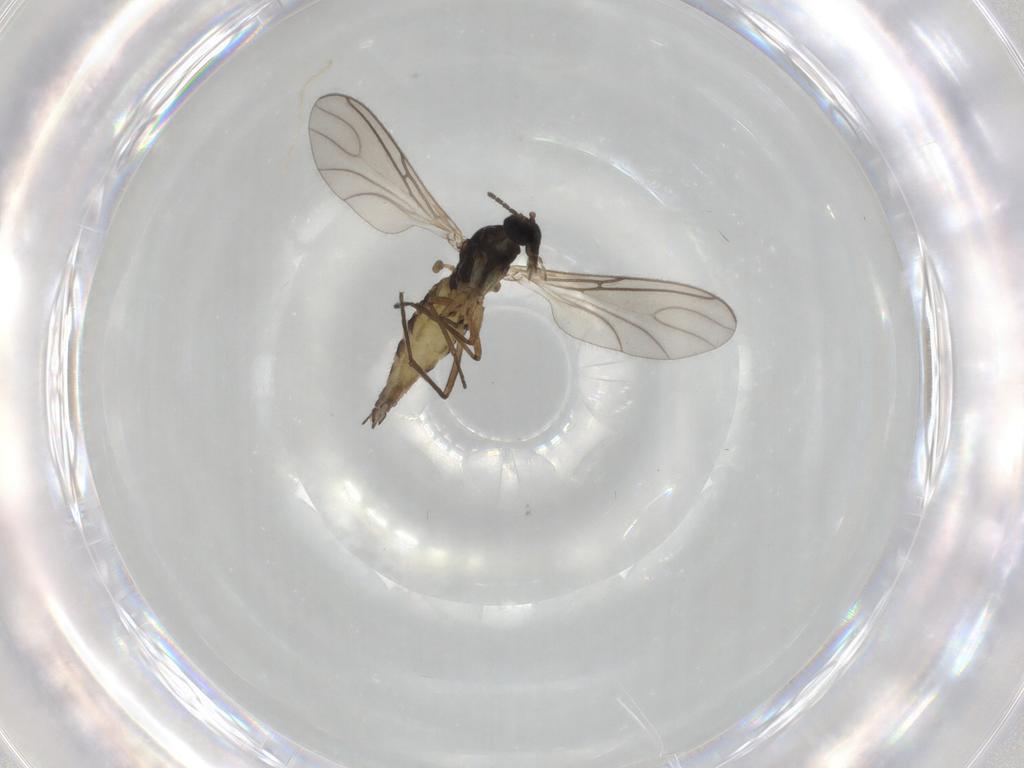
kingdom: Animalia
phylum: Arthropoda
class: Insecta
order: Diptera
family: Sciaridae
